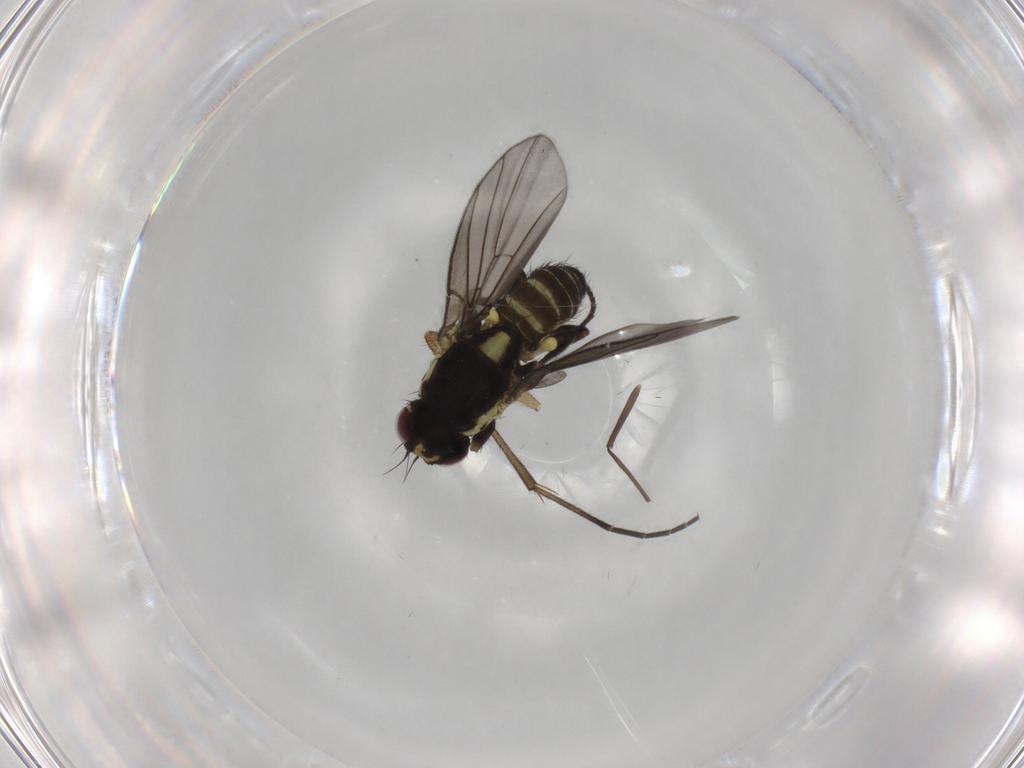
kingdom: Animalia
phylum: Arthropoda
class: Insecta
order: Diptera
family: Agromyzidae
